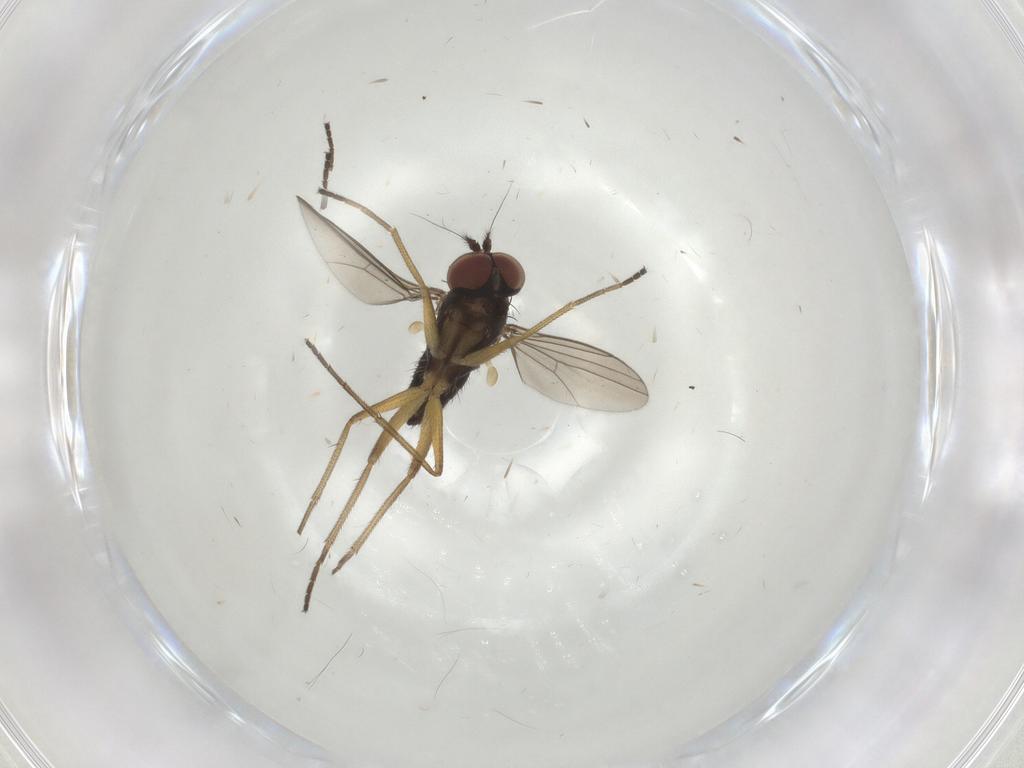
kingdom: Animalia
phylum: Arthropoda
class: Insecta
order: Diptera
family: Dolichopodidae
